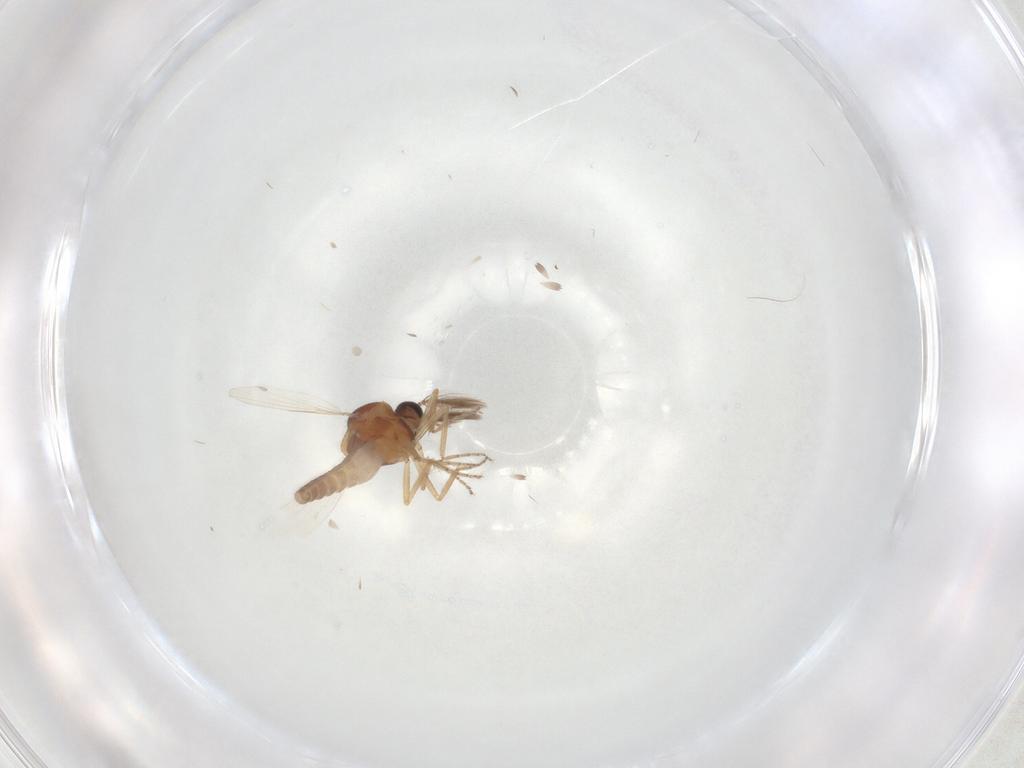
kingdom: Animalia
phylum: Arthropoda
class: Insecta
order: Diptera
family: Ceratopogonidae
